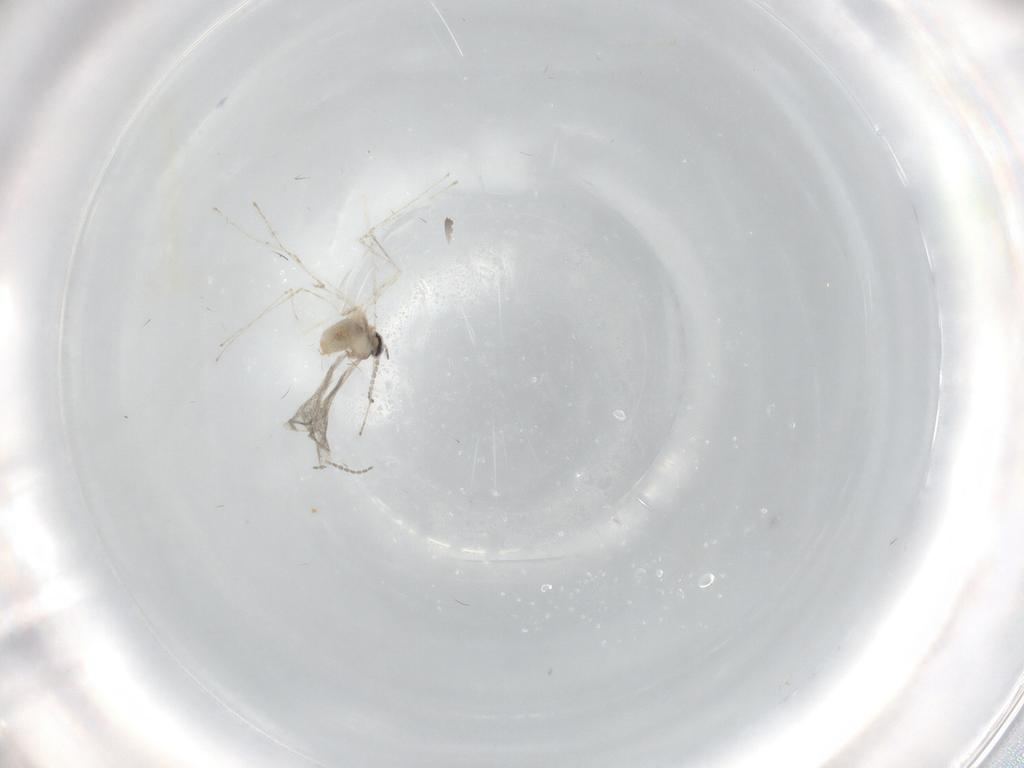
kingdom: Animalia
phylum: Arthropoda
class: Insecta
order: Diptera
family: Cecidomyiidae
